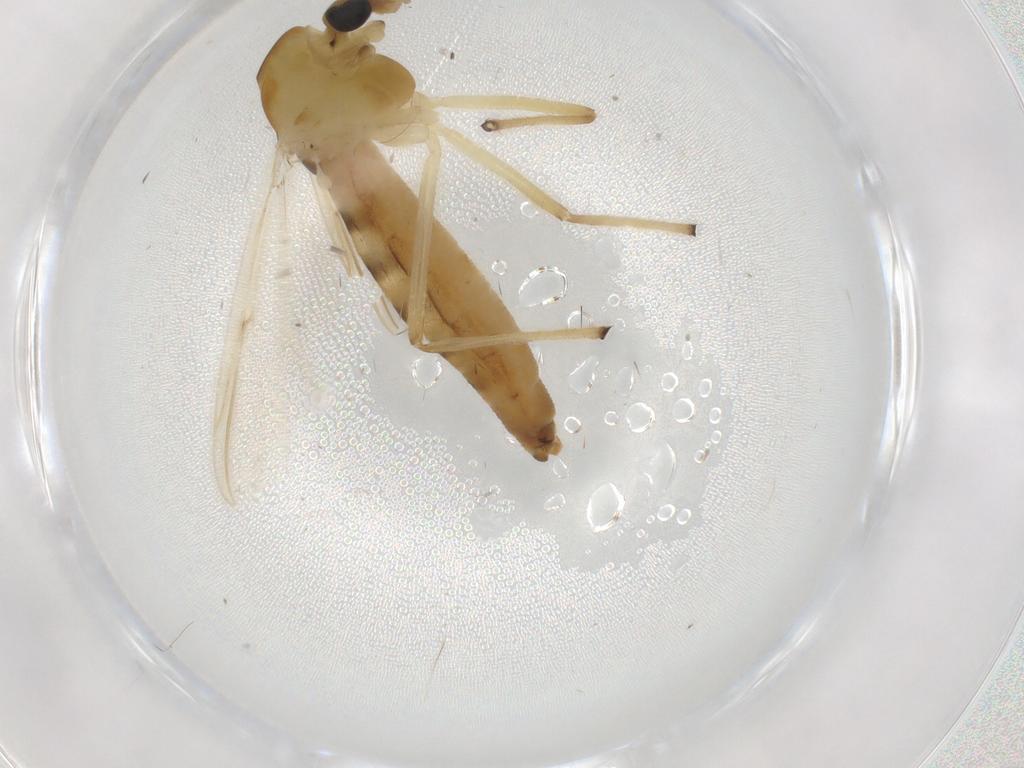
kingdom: Animalia
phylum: Arthropoda
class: Insecta
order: Diptera
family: Chironomidae
